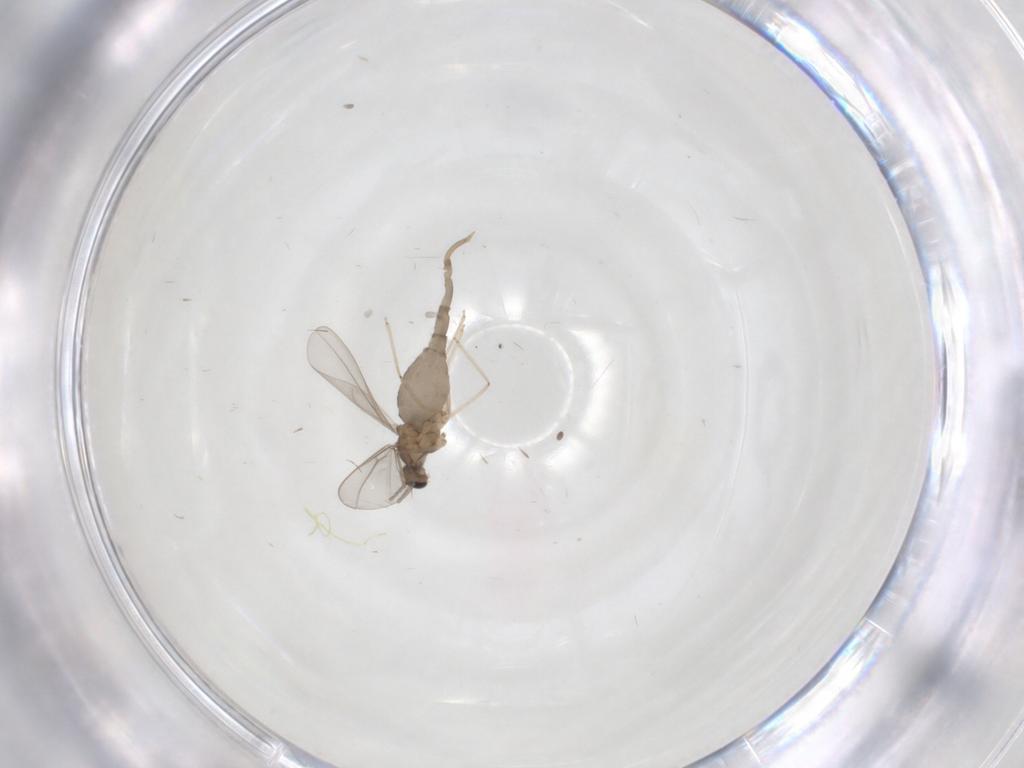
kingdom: Animalia
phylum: Arthropoda
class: Insecta
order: Diptera
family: Cecidomyiidae
